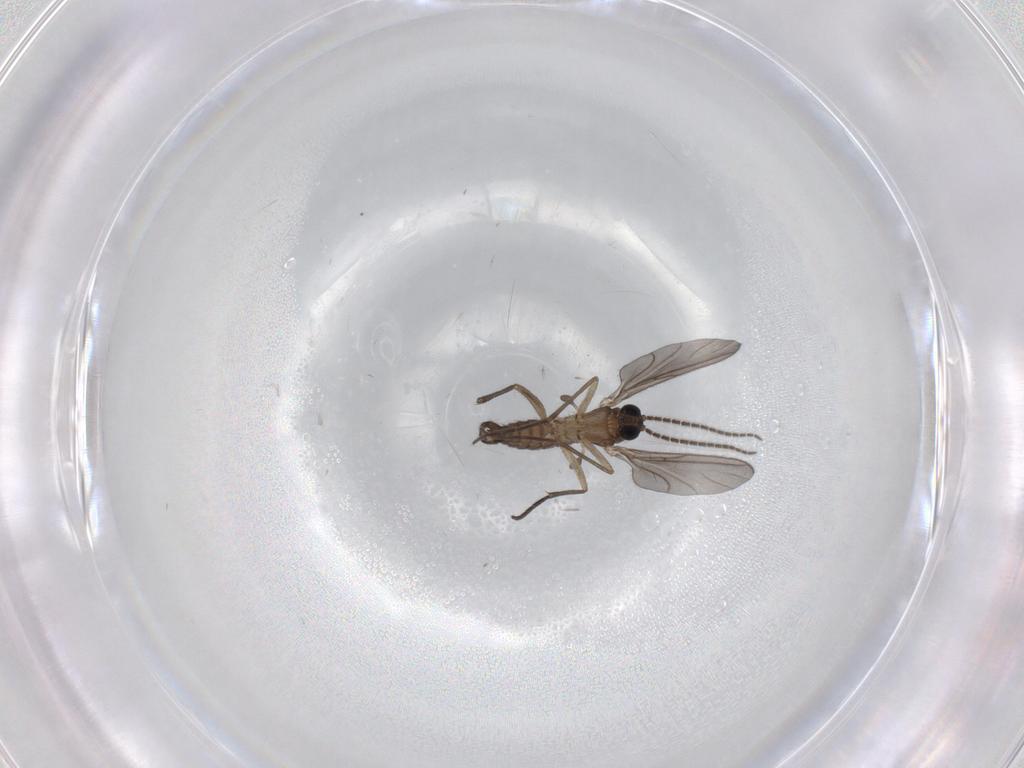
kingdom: Animalia
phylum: Arthropoda
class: Insecta
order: Diptera
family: Sciaridae
